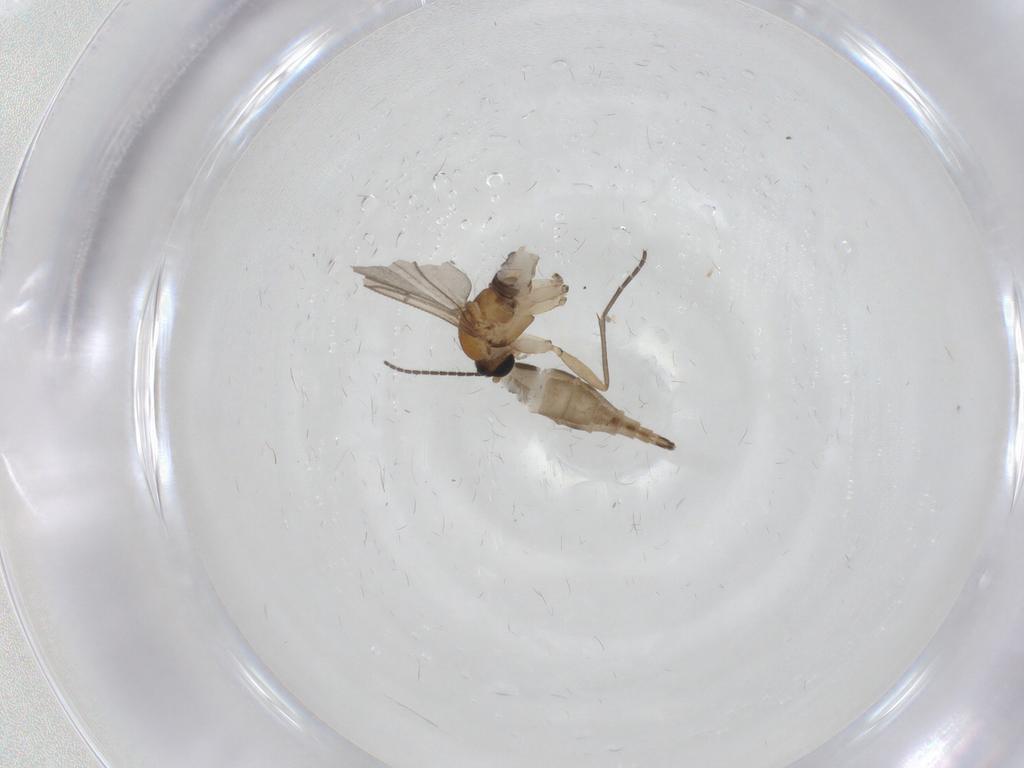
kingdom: Animalia
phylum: Arthropoda
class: Insecta
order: Diptera
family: Sciaridae
